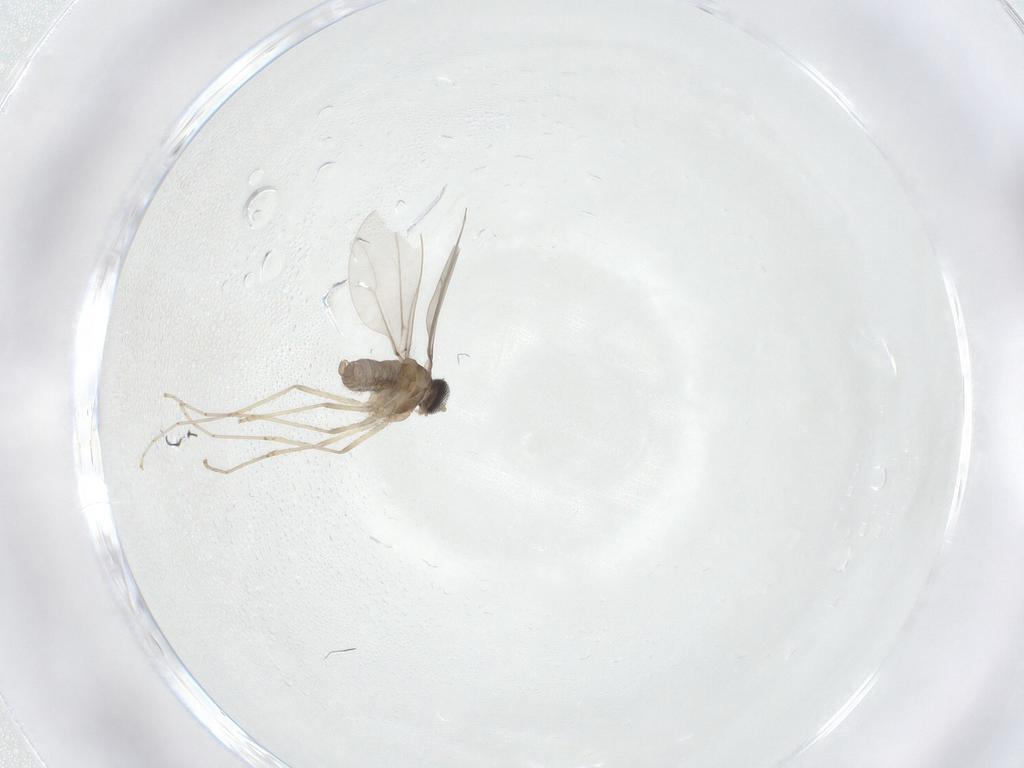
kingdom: Animalia
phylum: Arthropoda
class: Insecta
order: Diptera
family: Cecidomyiidae
